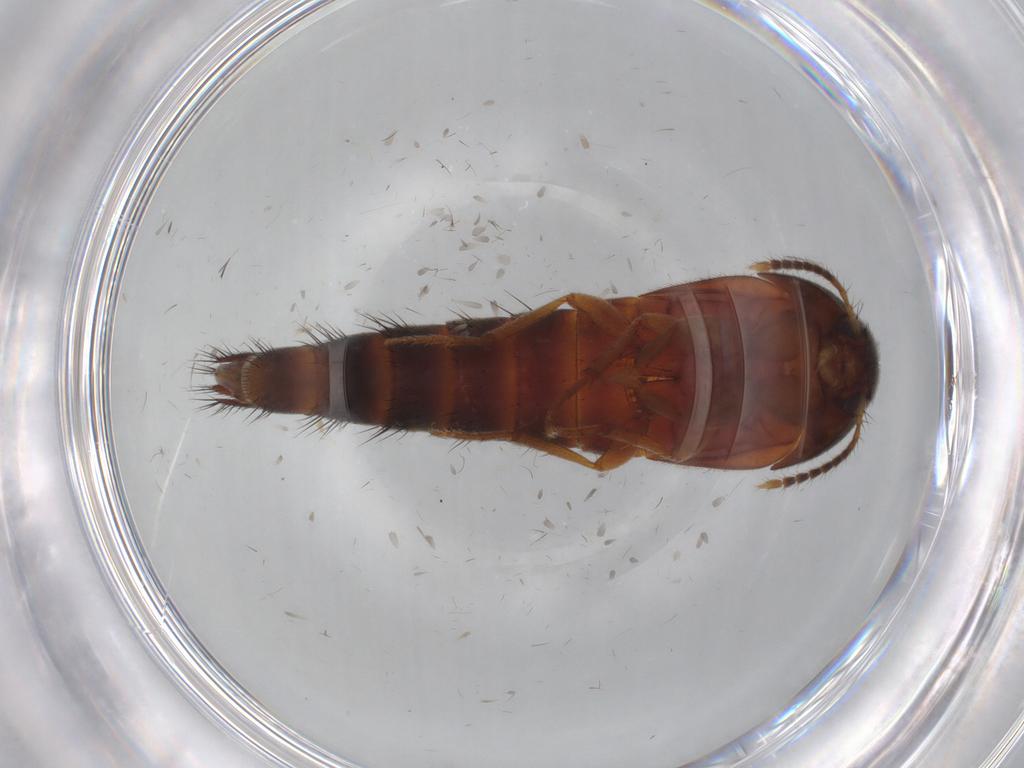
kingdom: Animalia
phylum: Arthropoda
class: Insecta
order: Coleoptera
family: Staphylinidae
